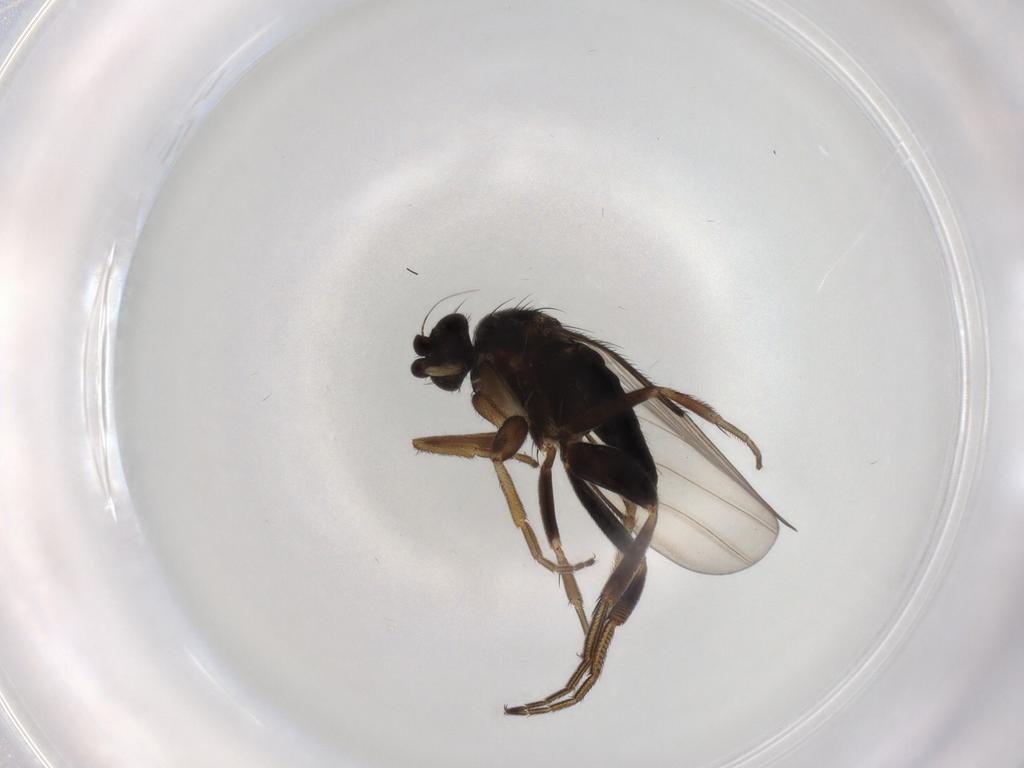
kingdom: Animalia
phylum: Arthropoda
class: Insecta
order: Diptera
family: Phoridae
